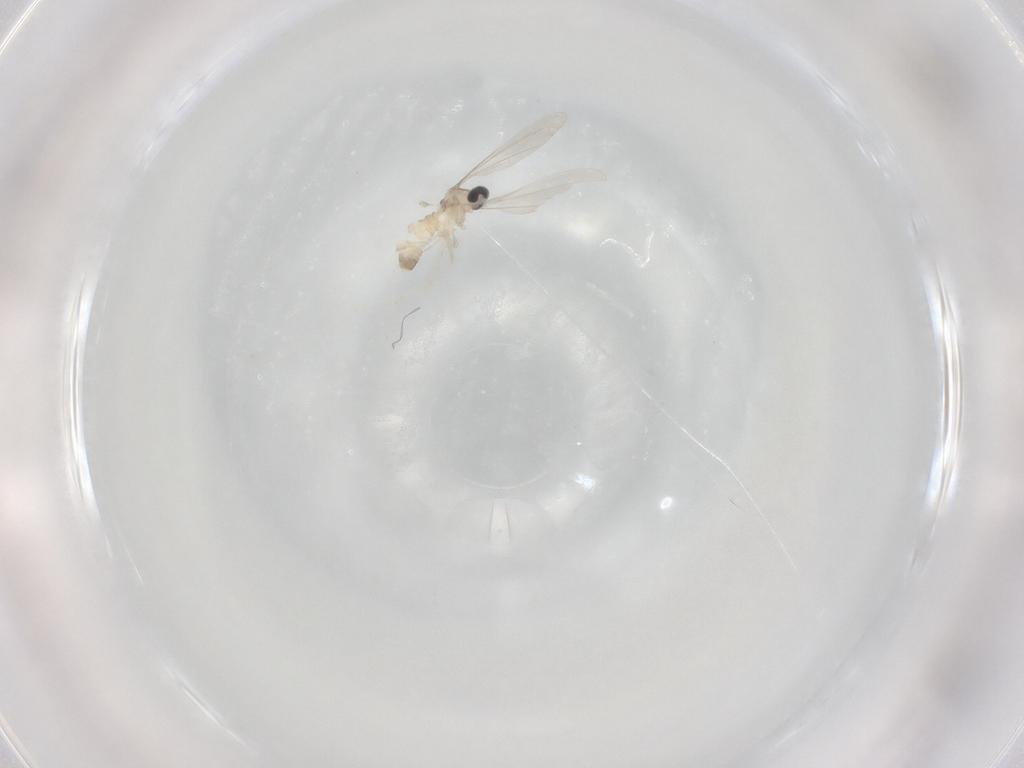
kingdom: Animalia
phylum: Arthropoda
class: Insecta
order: Diptera
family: Cecidomyiidae
